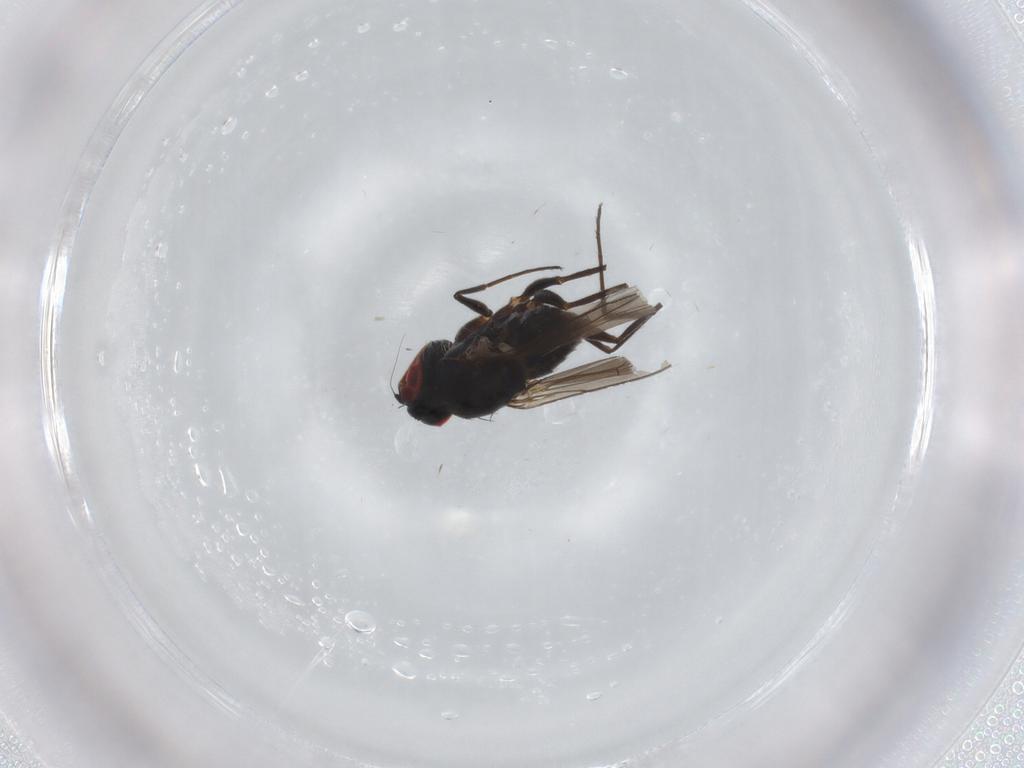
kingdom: Animalia
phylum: Arthropoda
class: Insecta
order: Diptera
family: Dolichopodidae
